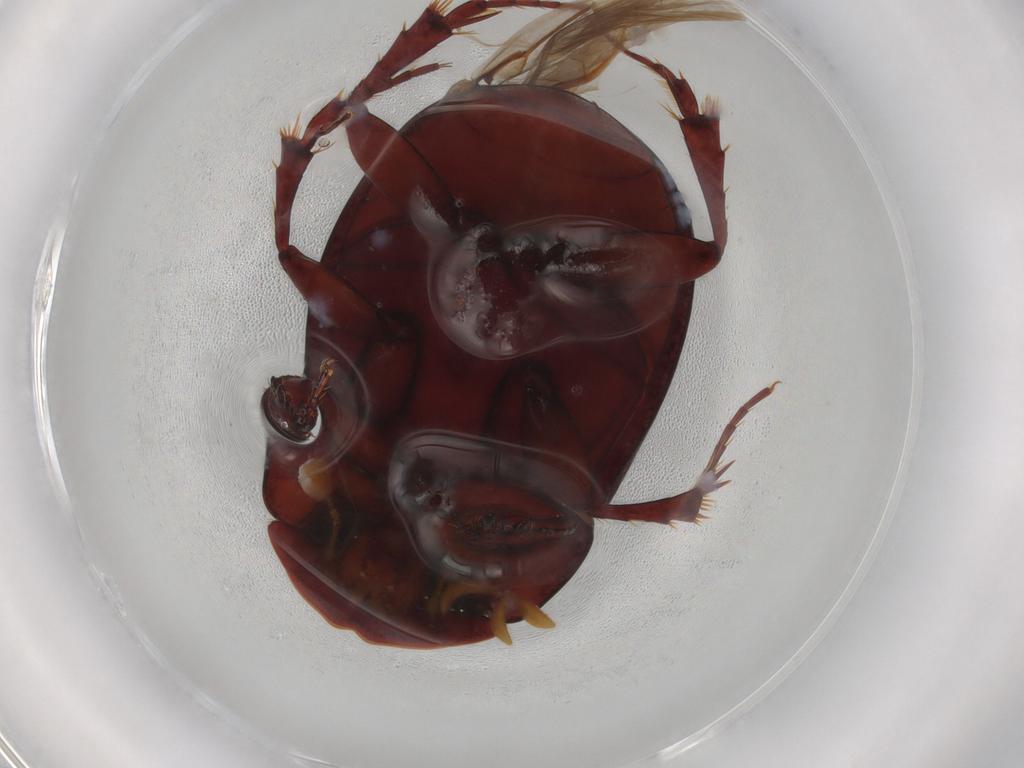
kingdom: Animalia
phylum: Arthropoda
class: Insecta
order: Coleoptera
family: Scarabaeidae
